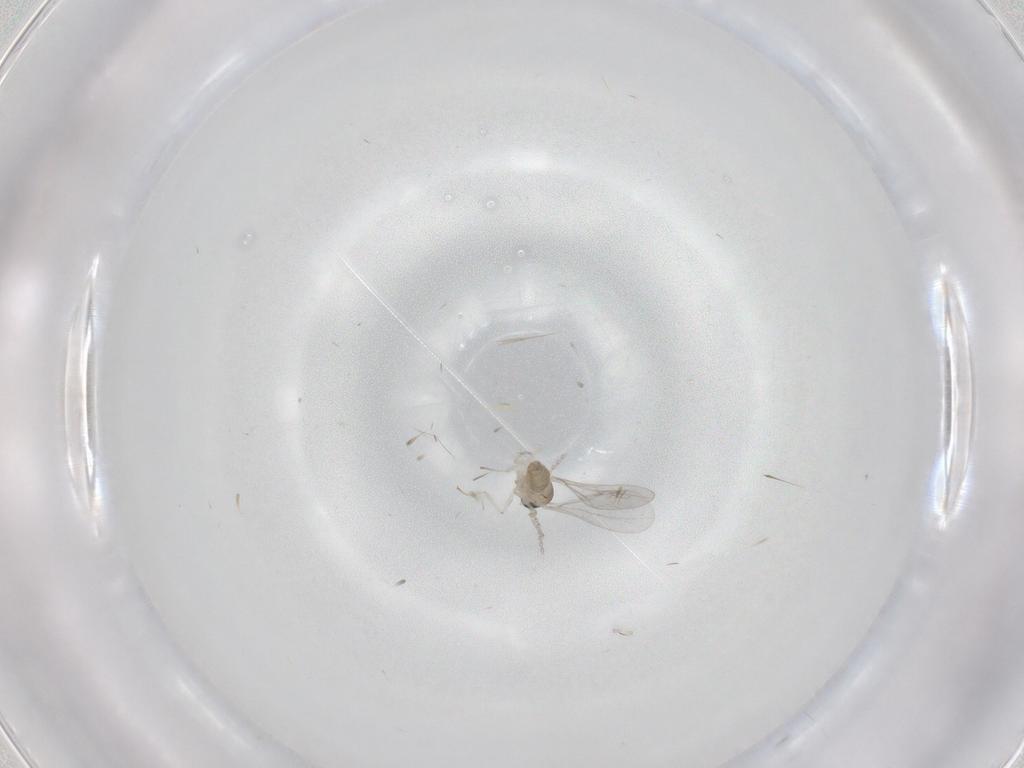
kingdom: Animalia
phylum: Arthropoda
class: Insecta
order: Diptera
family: Cecidomyiidae
